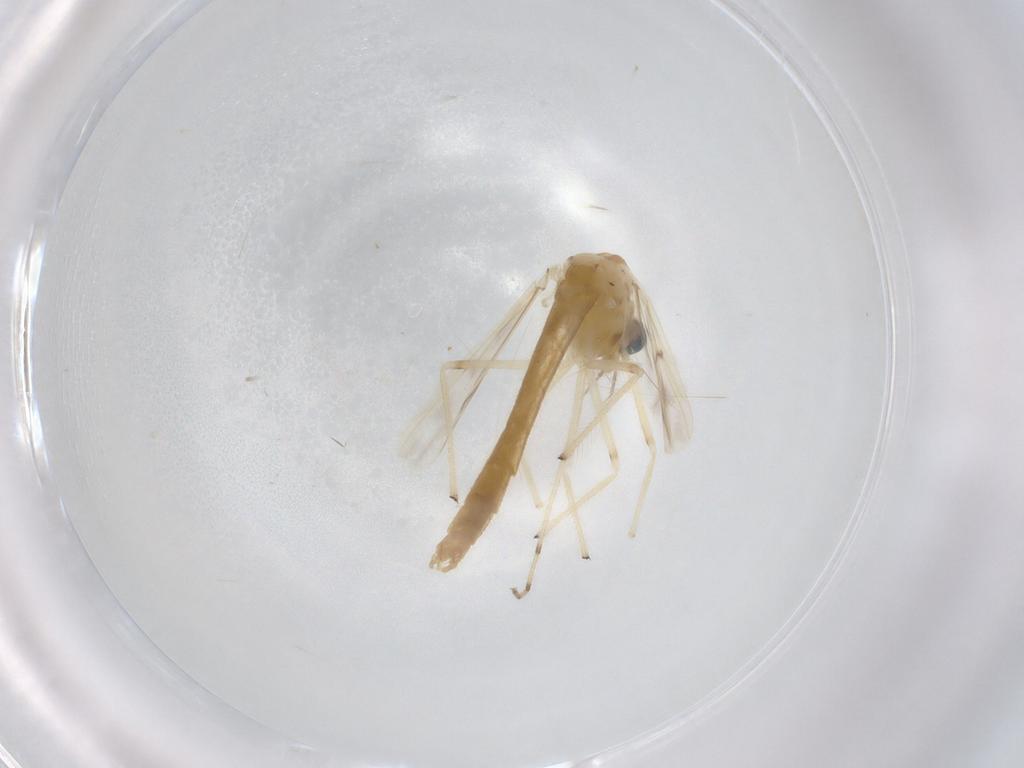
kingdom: Animalia
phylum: Arthropoda
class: Insecta
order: Diptera
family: Chironomidae
